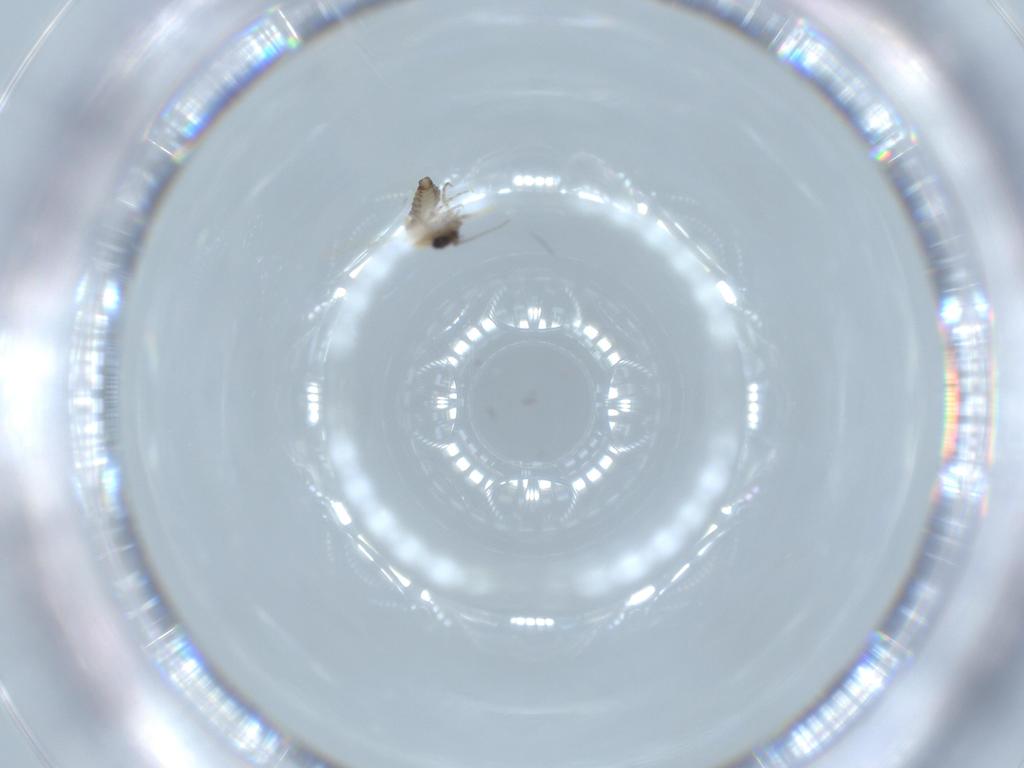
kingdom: Animalia
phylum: Arthropoda
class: Insecta
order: Diptera
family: Chironomidae
